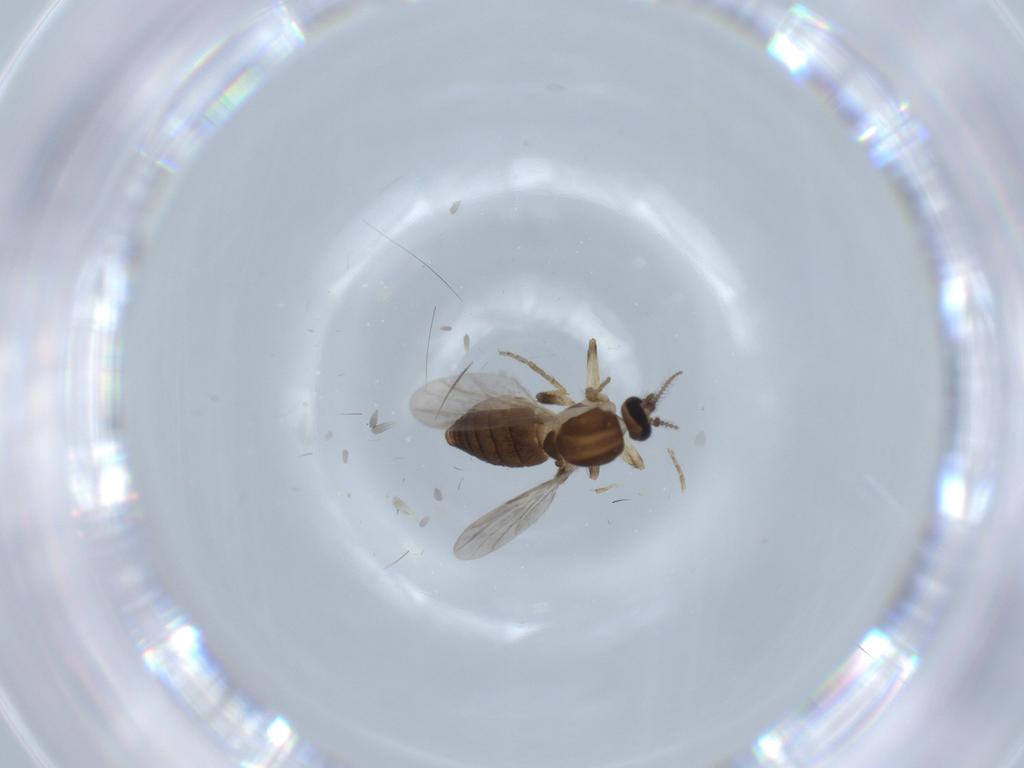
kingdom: Animalia
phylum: Arthropoda
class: Insecta
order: Diptera
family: Ceratopogonidae
